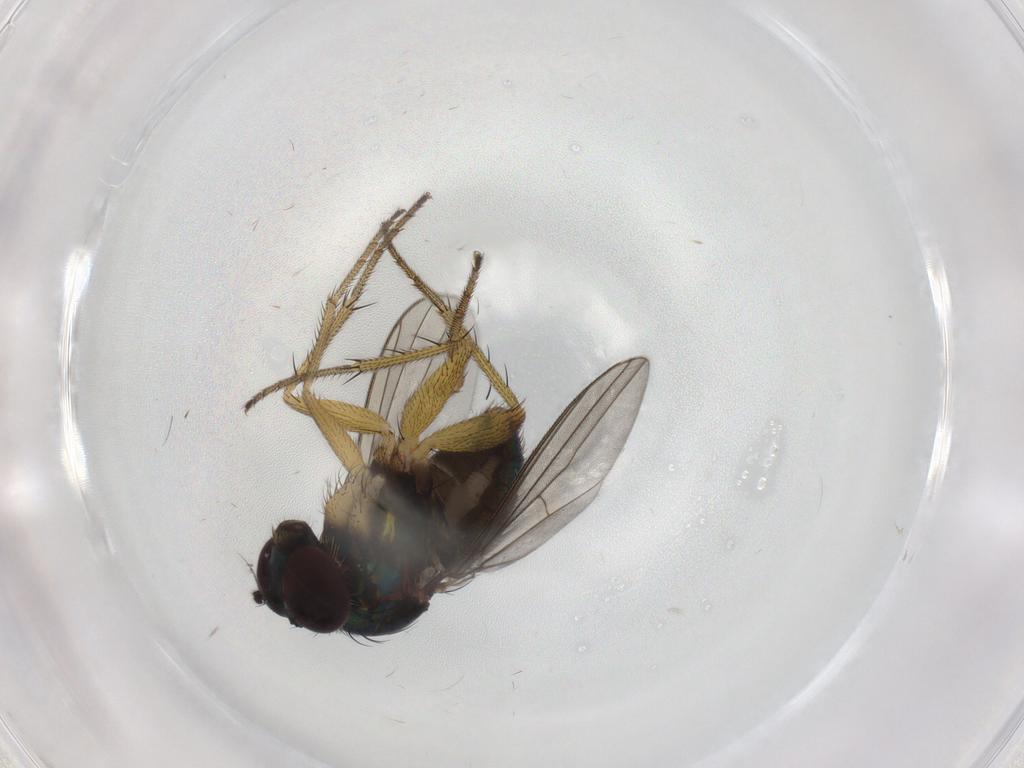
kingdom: Animalia
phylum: Arthropoda
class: Insecta
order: Diptera
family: Dolichopodidae
